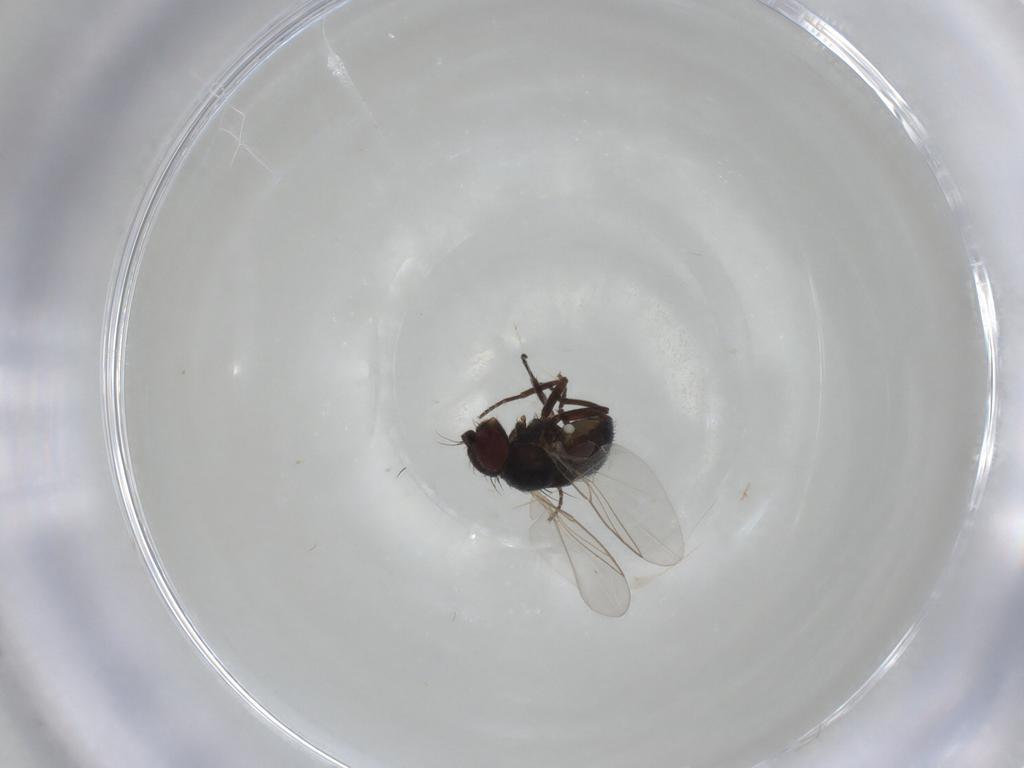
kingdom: Animalia
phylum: Arthropoda
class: Insecta
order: Diptera
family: Agromyzidae
